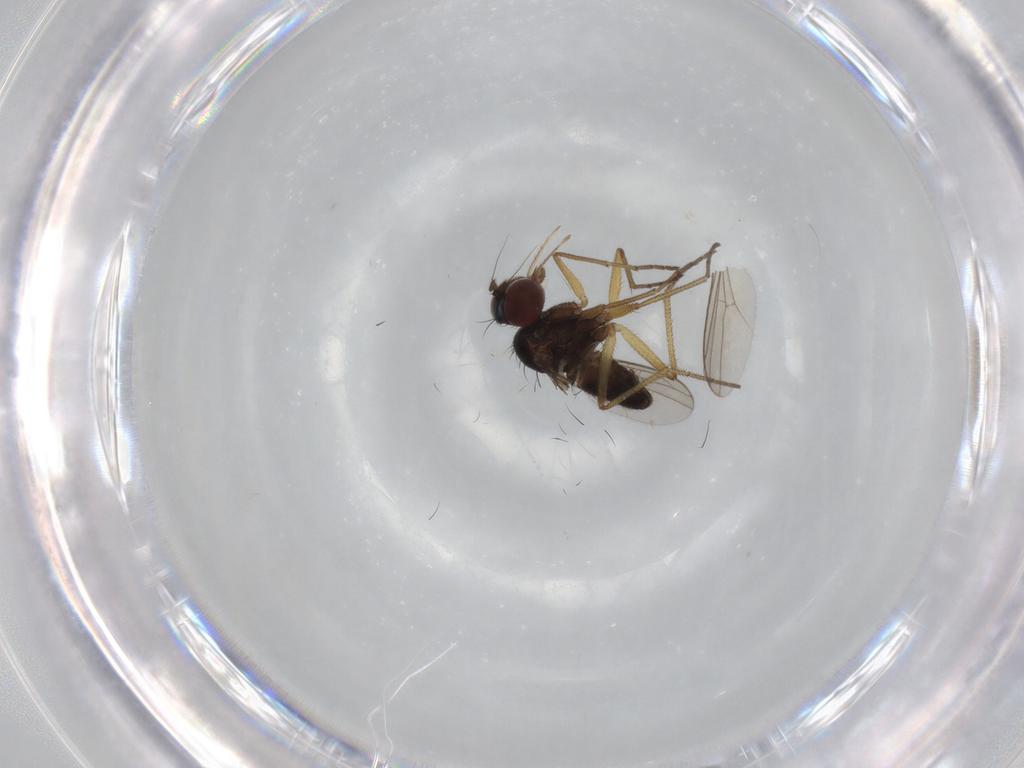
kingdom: Animalia
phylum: Arthropoda
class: Insecta
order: Diptera
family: Dolichopodidae
